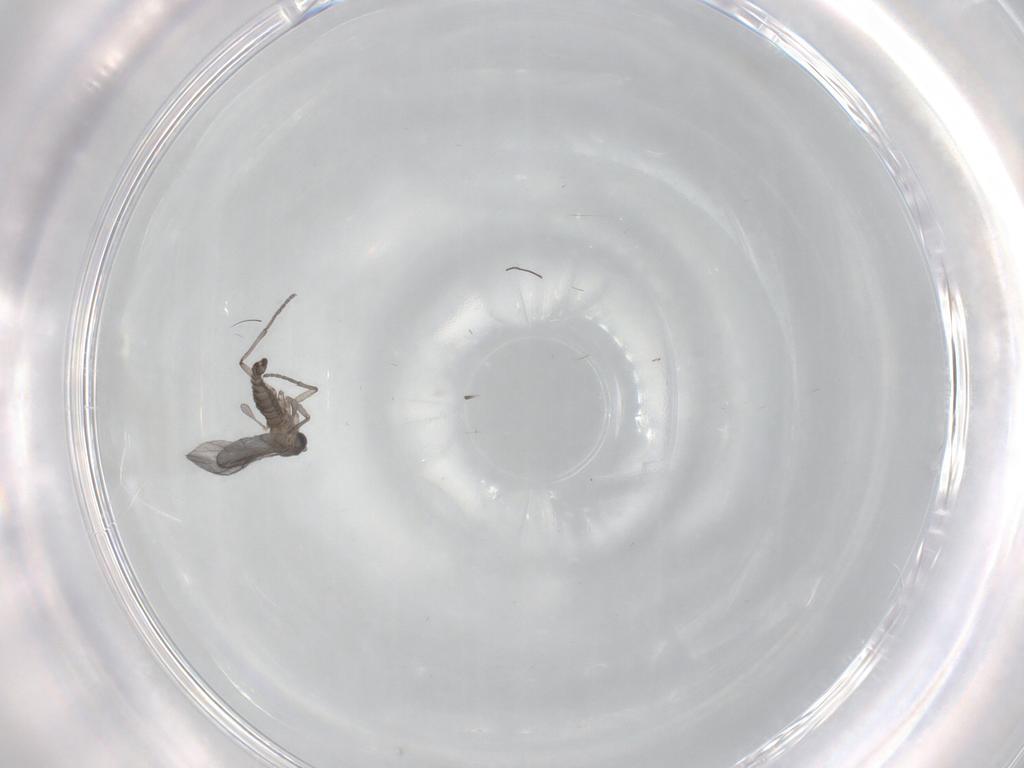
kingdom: Animalia
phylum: Arthropoda
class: Insecta
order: Diptera
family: Cecidomyiidae
